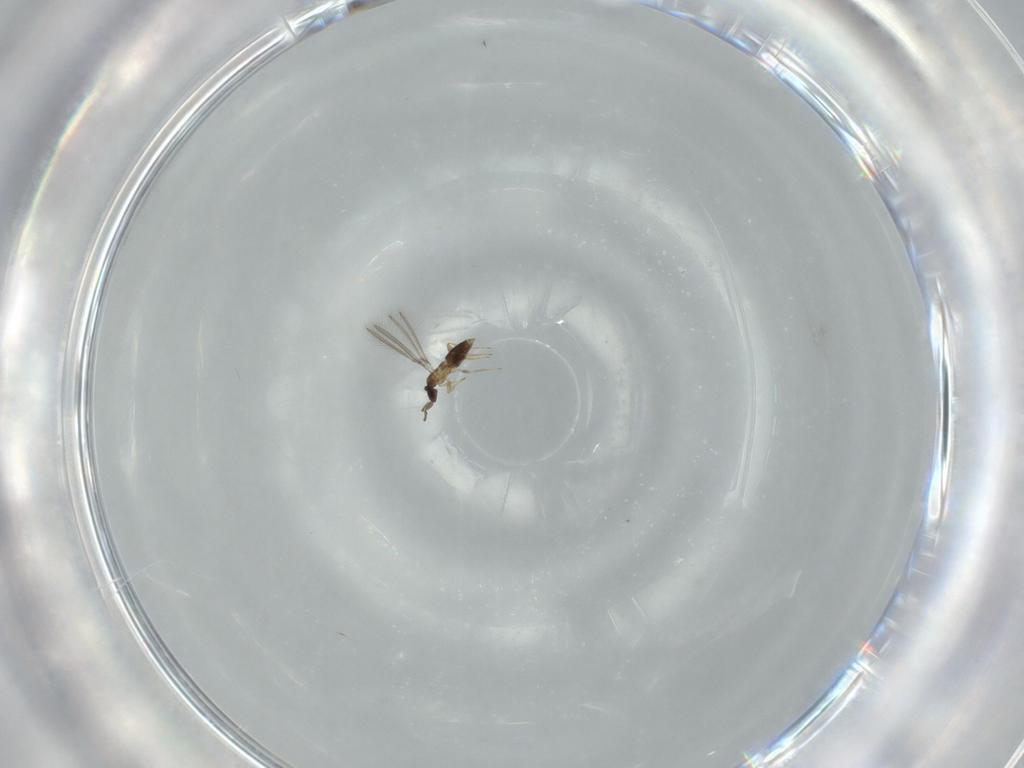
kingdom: Animalia
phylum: Arthropoda
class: Insecta
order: Hymenoptera
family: Mymaridae
